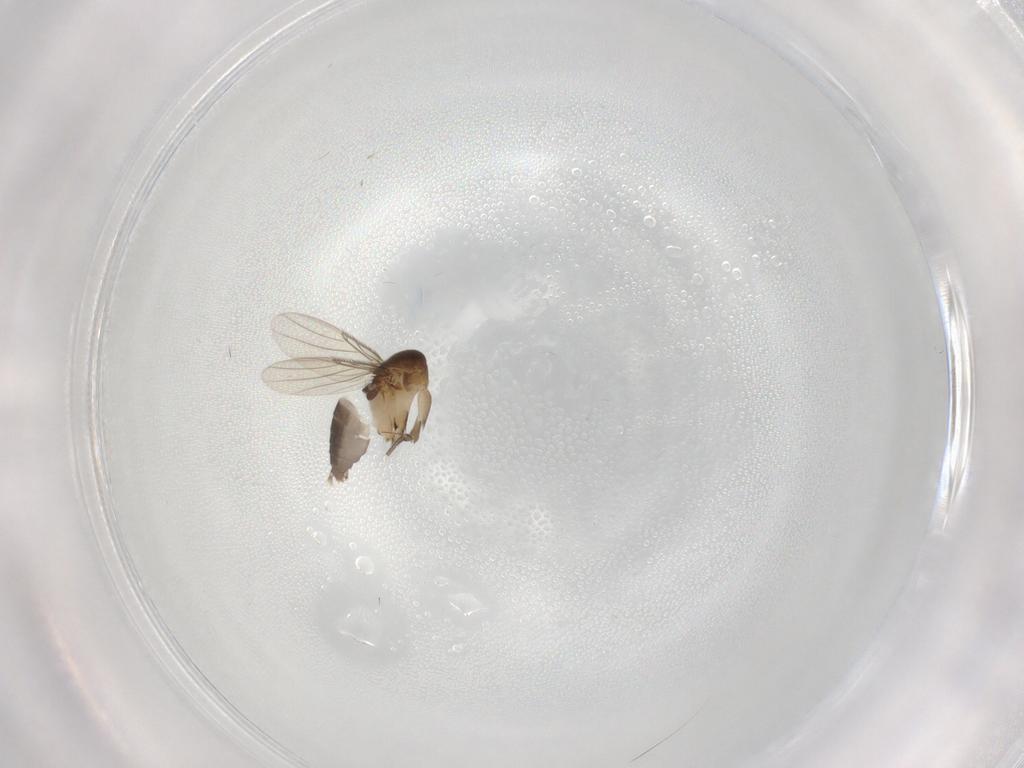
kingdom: Animalia
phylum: Arthropoda
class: Insecta
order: Diptera
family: Phoridae
